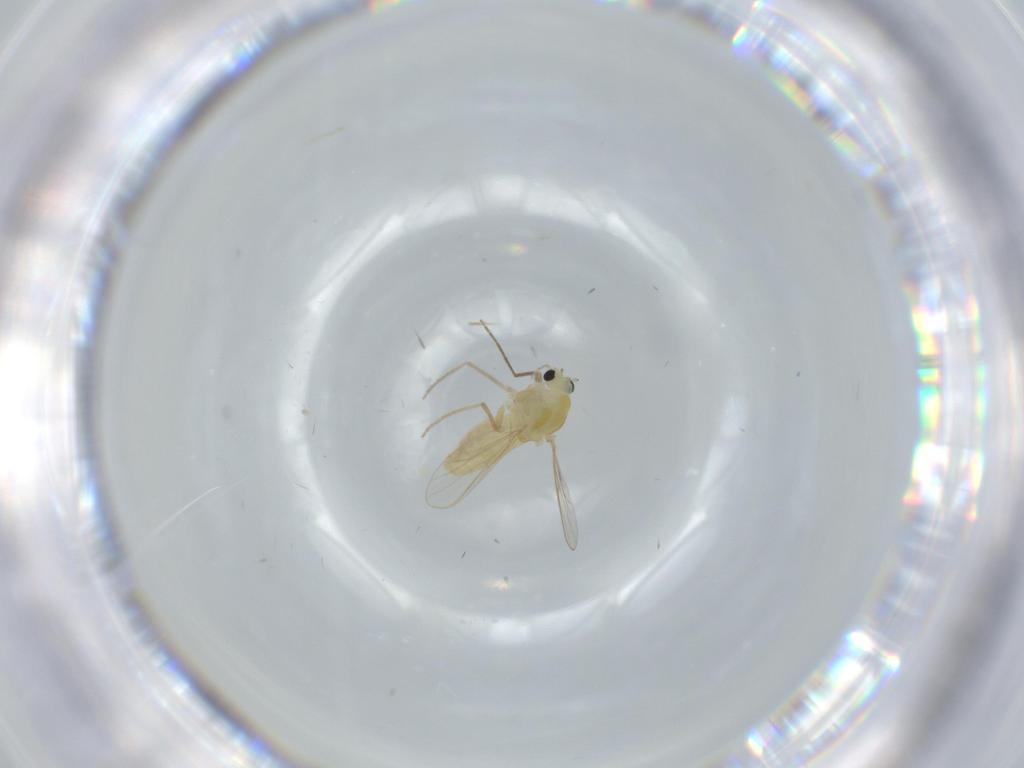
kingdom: Animalia
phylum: Arthropoda
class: Insecta
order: Diptera
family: Chironomidae
